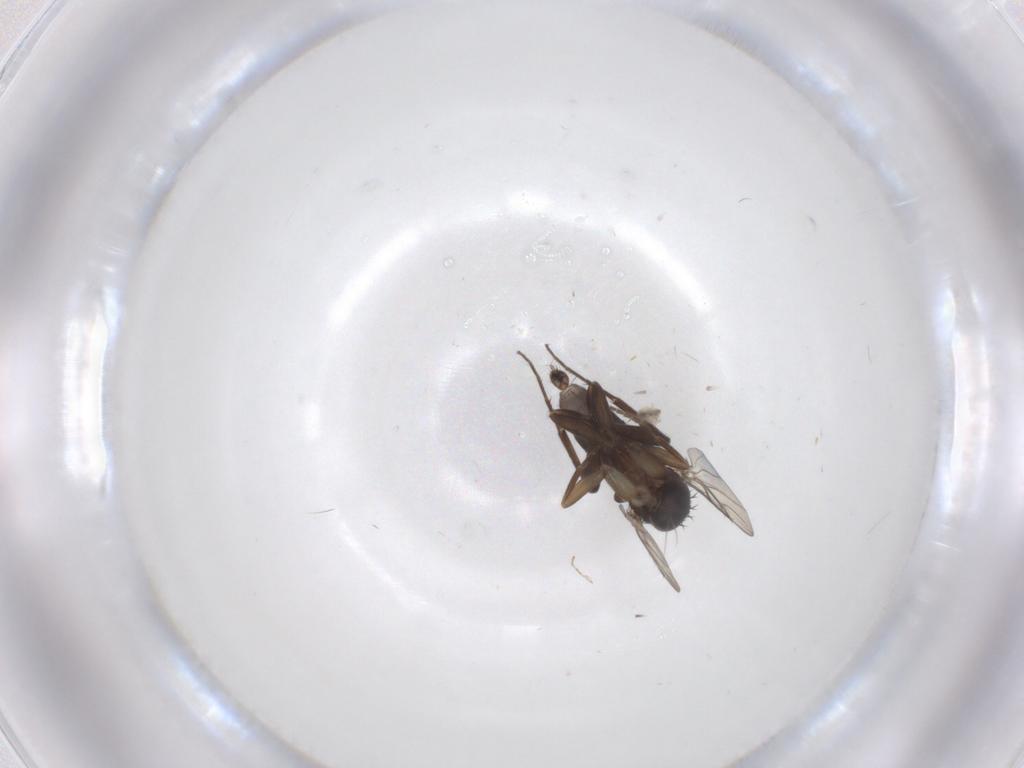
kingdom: Animalia
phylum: Arthropoda
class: Insecta
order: Diptera
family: Phoridae
